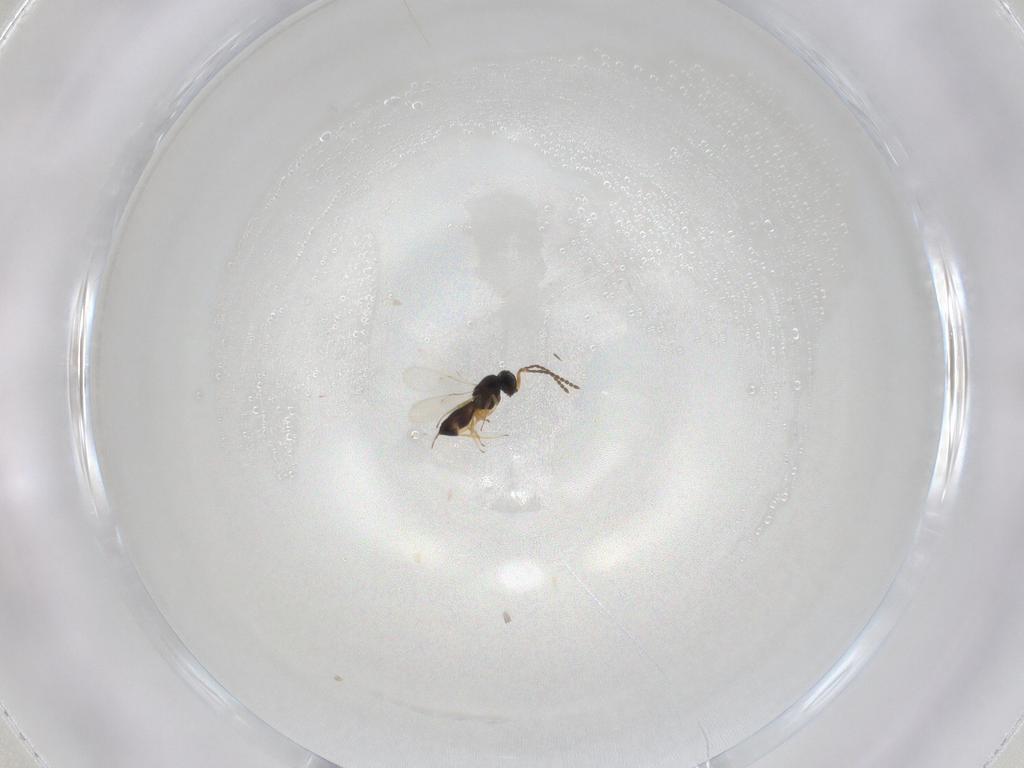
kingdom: Animalia
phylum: Arthropoda
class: Insecta
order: Hymenoptera
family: Scelionidae
